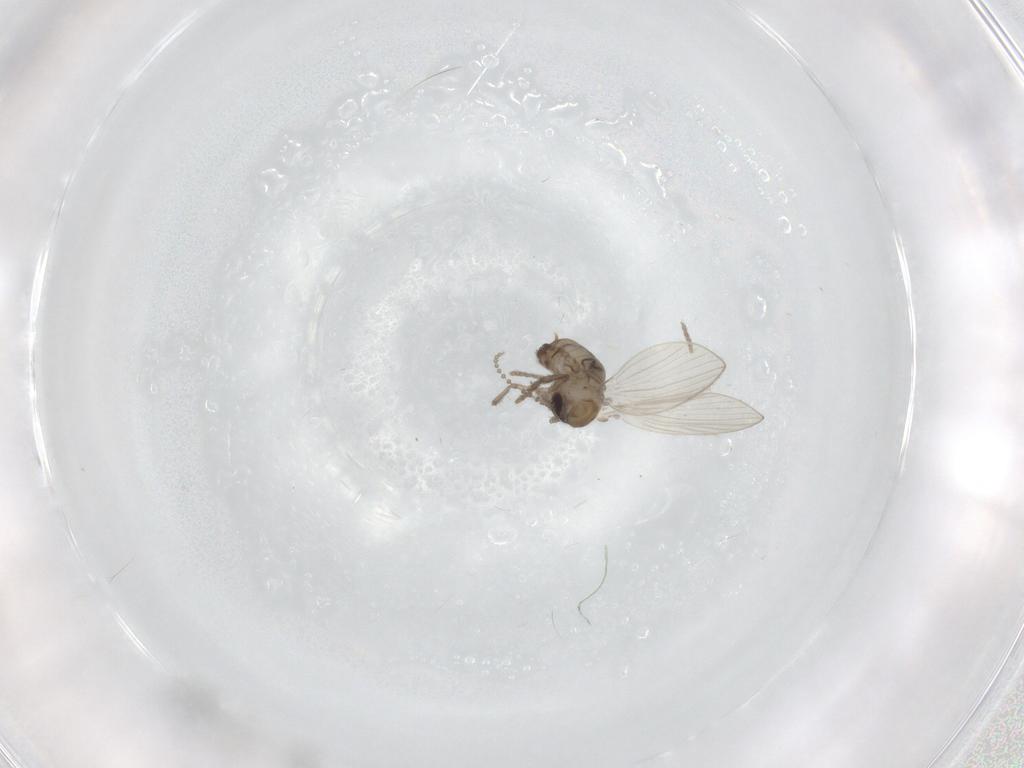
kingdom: Animalia
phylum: Arthropoda
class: Insecta
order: Diptera
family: Psychodidae
